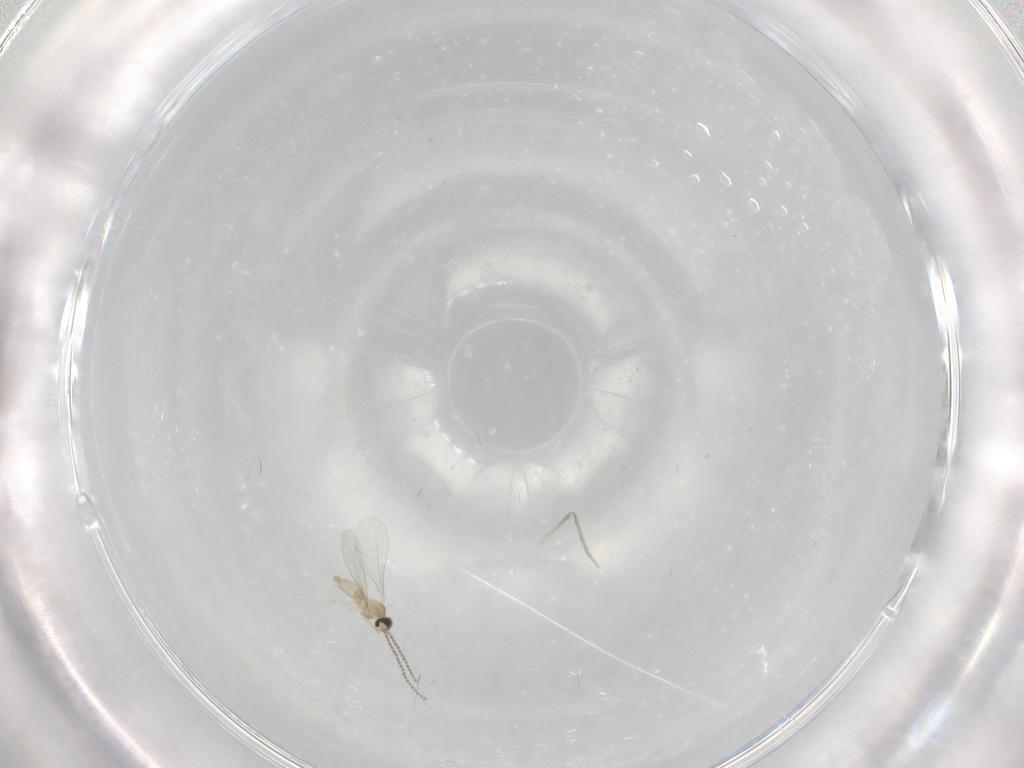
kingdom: Animalia
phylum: Arthropoda
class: Insecta
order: Diptera
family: Cecidomyiidae
